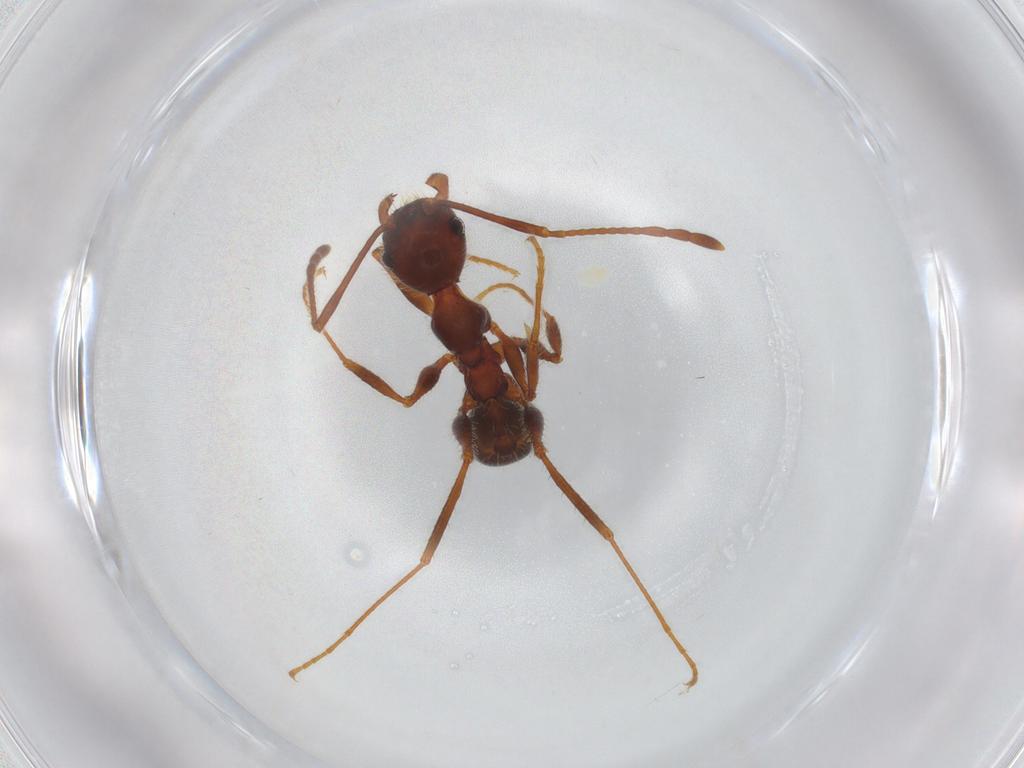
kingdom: Animalia
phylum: Arthropoda
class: Insecta
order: Hymenoptera
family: Formicidae
